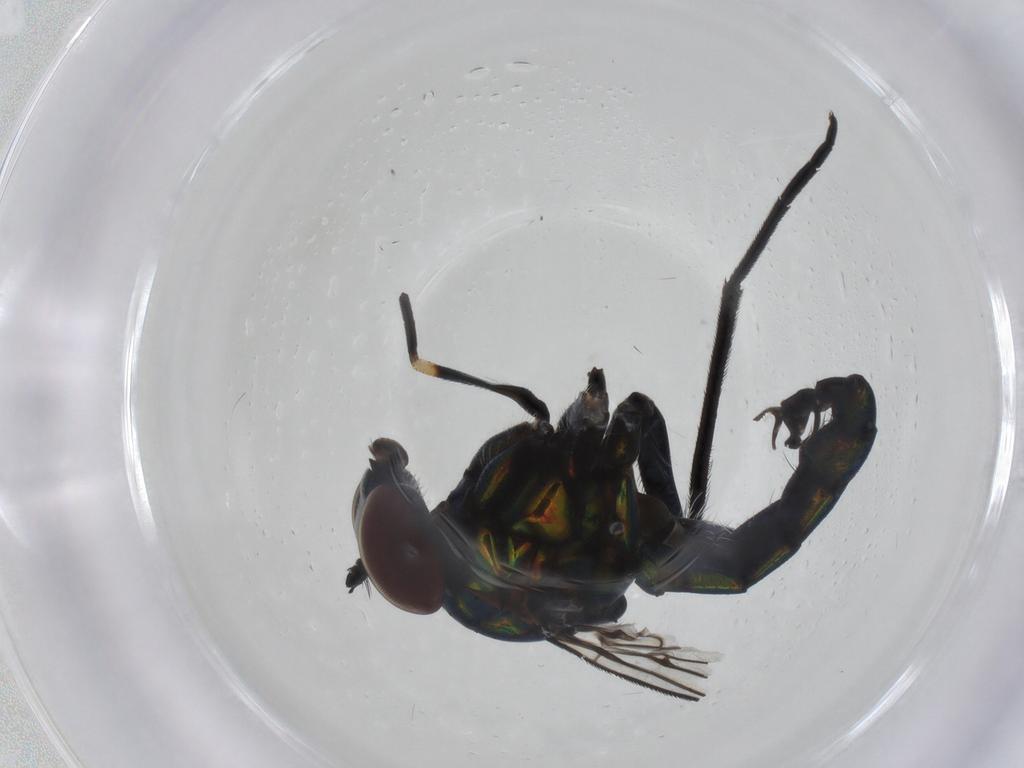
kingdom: Animalia
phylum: Arthropoda
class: Insecta
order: Diptera
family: Dolichopodidae
